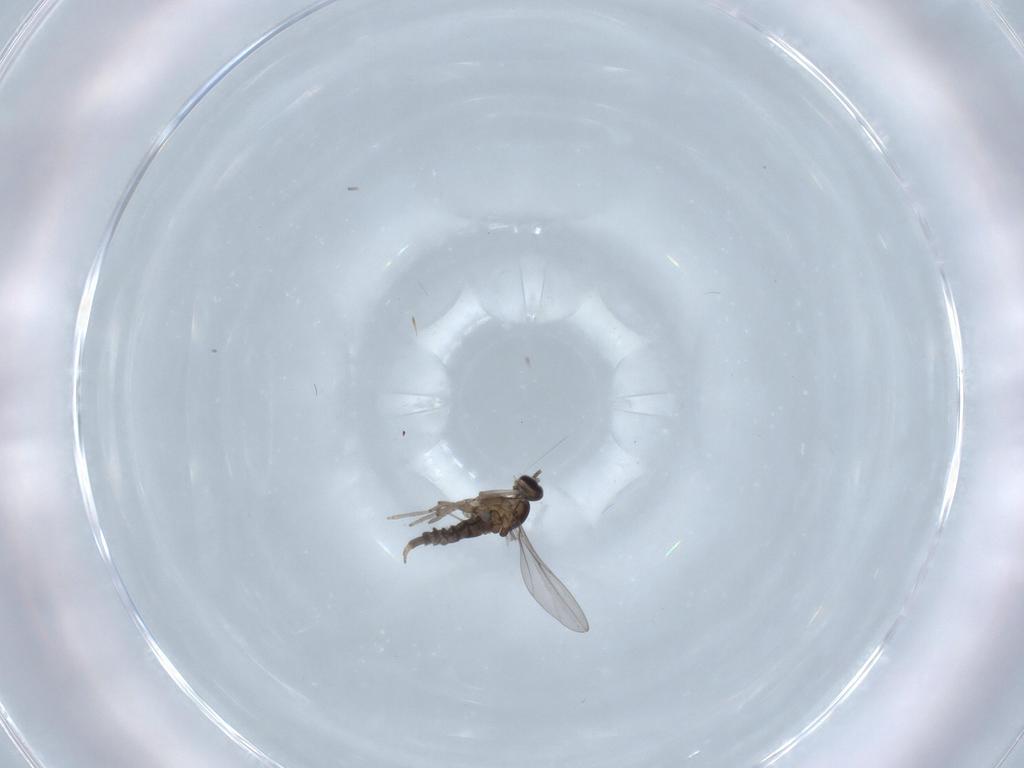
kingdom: Animalia
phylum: Arthropoda
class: Insecta
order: Diptera
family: Cecidomyiidae
